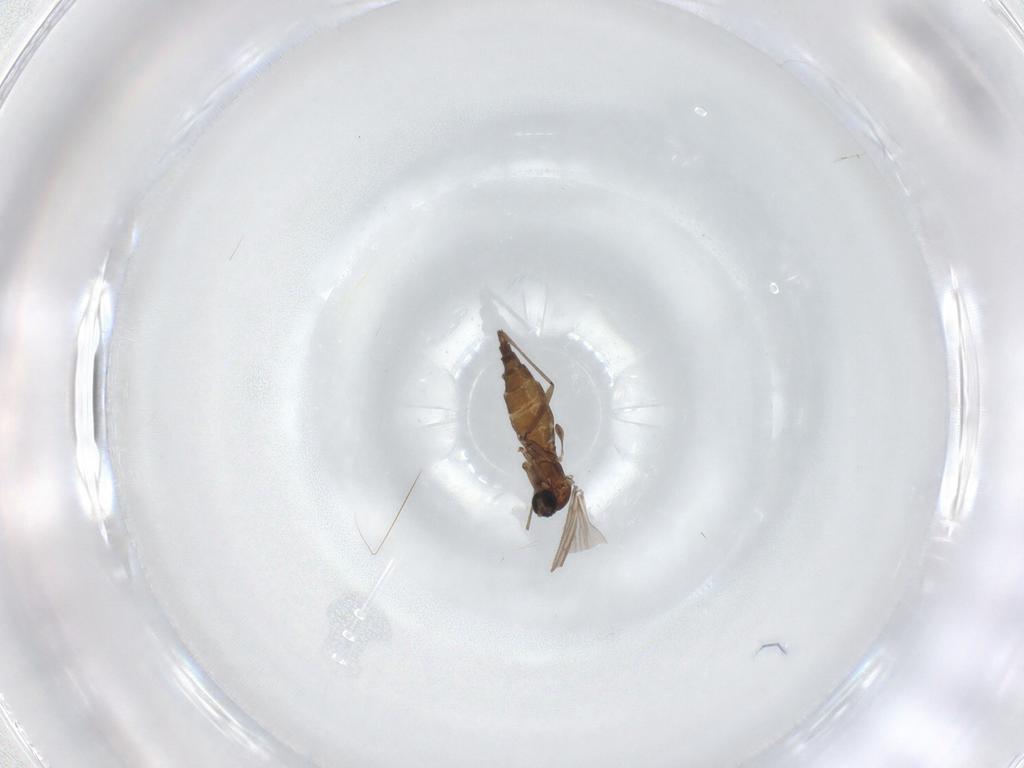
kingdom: Animalia
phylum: Arthropoda
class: Insecta
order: Diptera
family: Sciaridae
